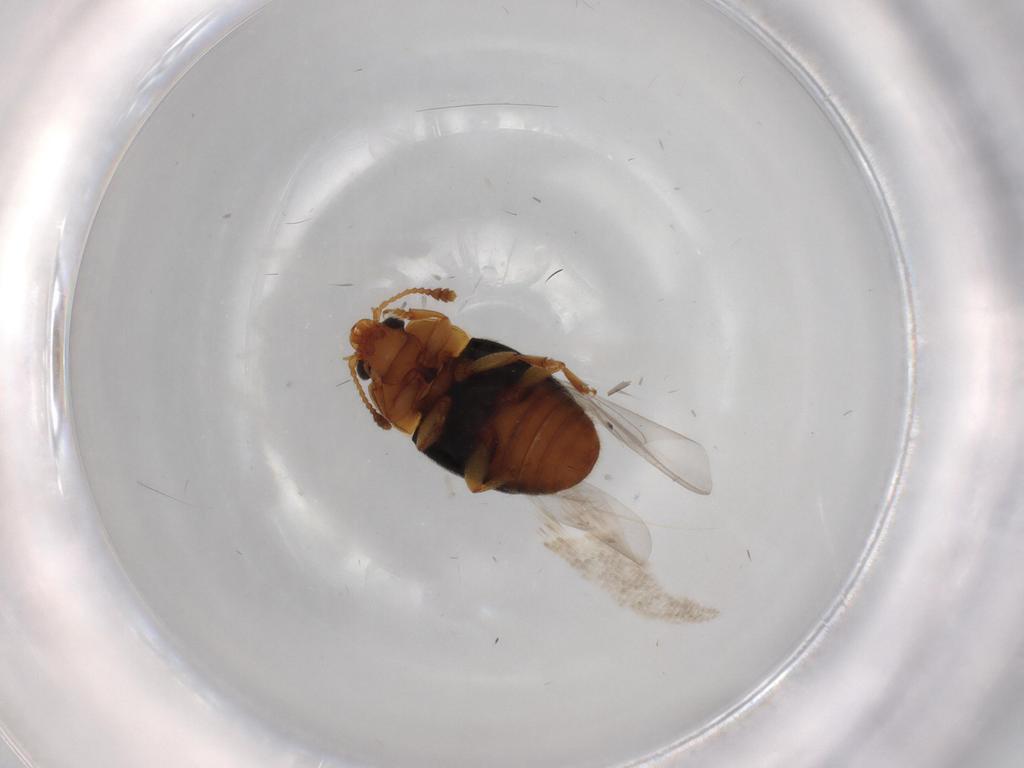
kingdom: Animalia
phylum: Arthropoda
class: Insecta
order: Coleoptera
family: Nitidulidae
